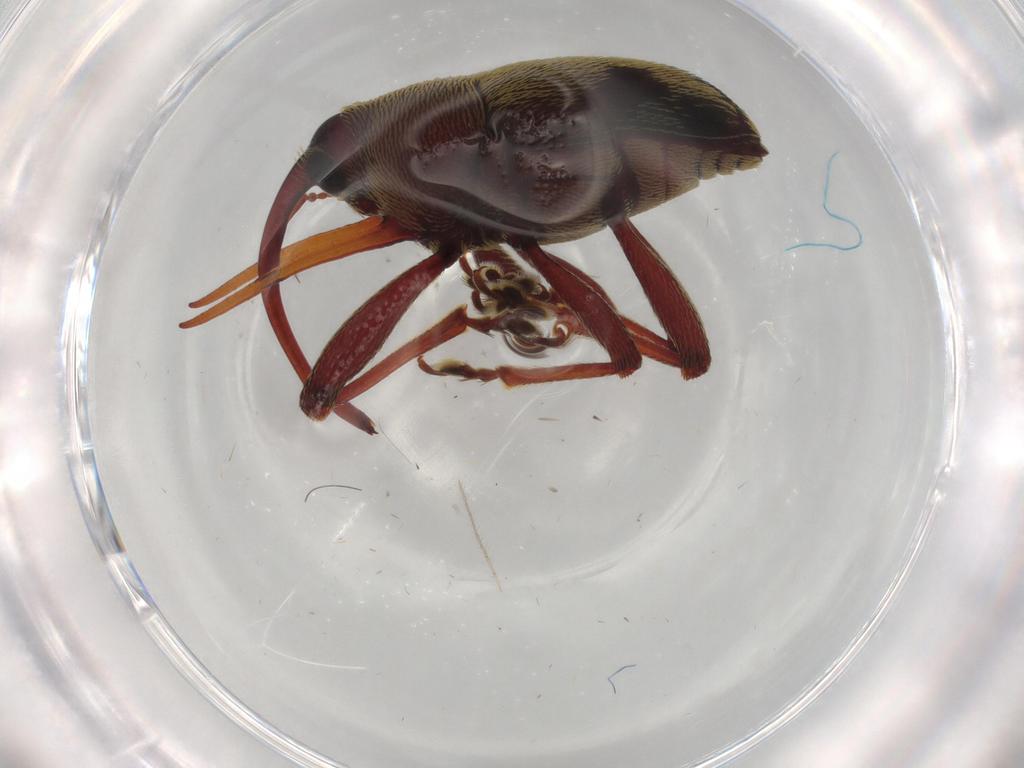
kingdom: Animalia
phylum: Arthropoda
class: Insecta
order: Coleoptera
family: Curculionidae
